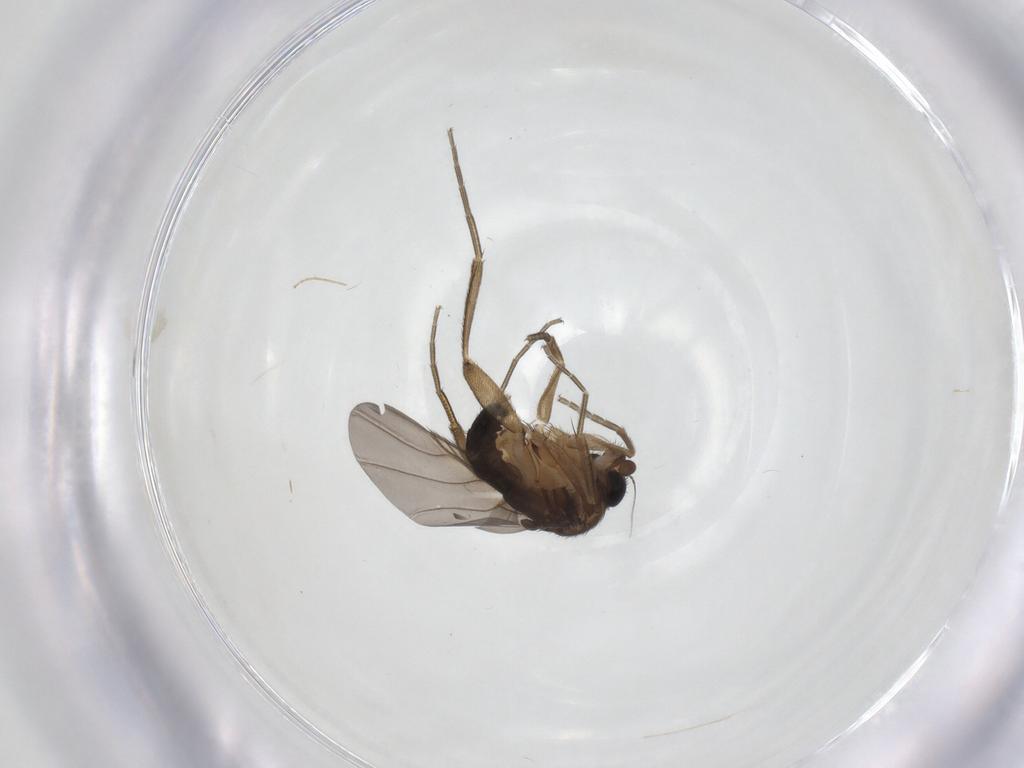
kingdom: Animalia
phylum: Arthropoda
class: Insecta
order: Diptera
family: Phoridae
